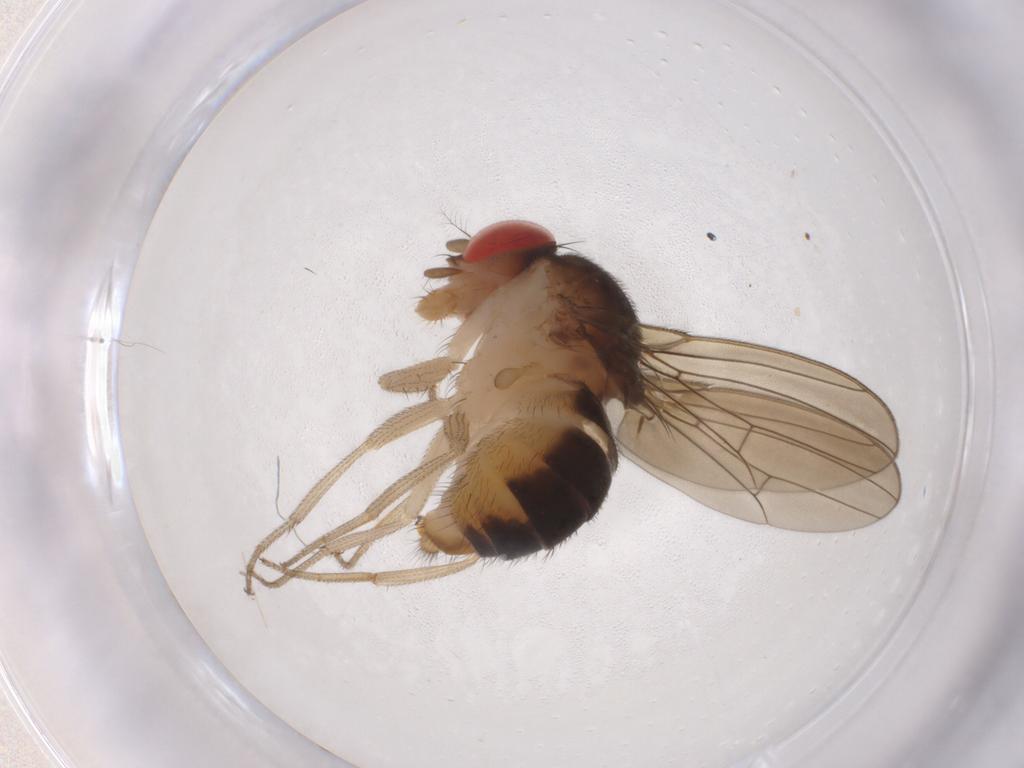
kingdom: Animalia
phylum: Arthropoda
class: Insecta
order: Diptera
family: Drosophilidae
